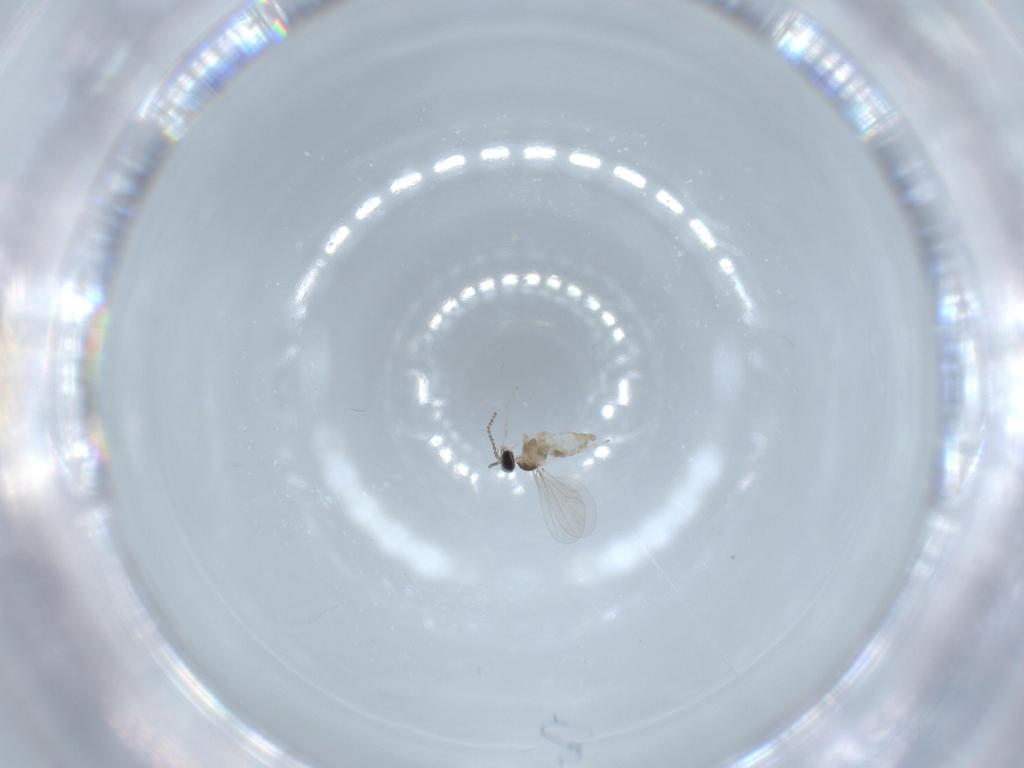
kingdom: Animalia
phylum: Arthropoda
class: Insecta
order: Diptera
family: Cecidomyiidae
